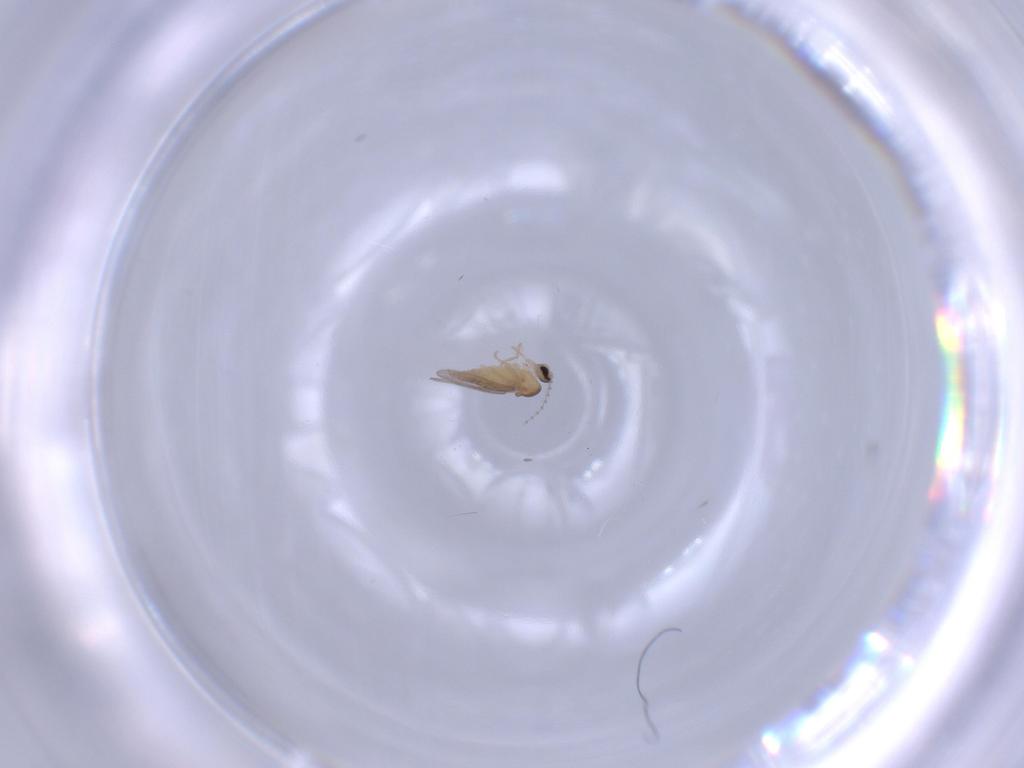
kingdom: Animalia
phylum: Arthropoda
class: Insecta
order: Diptera
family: Cecidomyiidae
